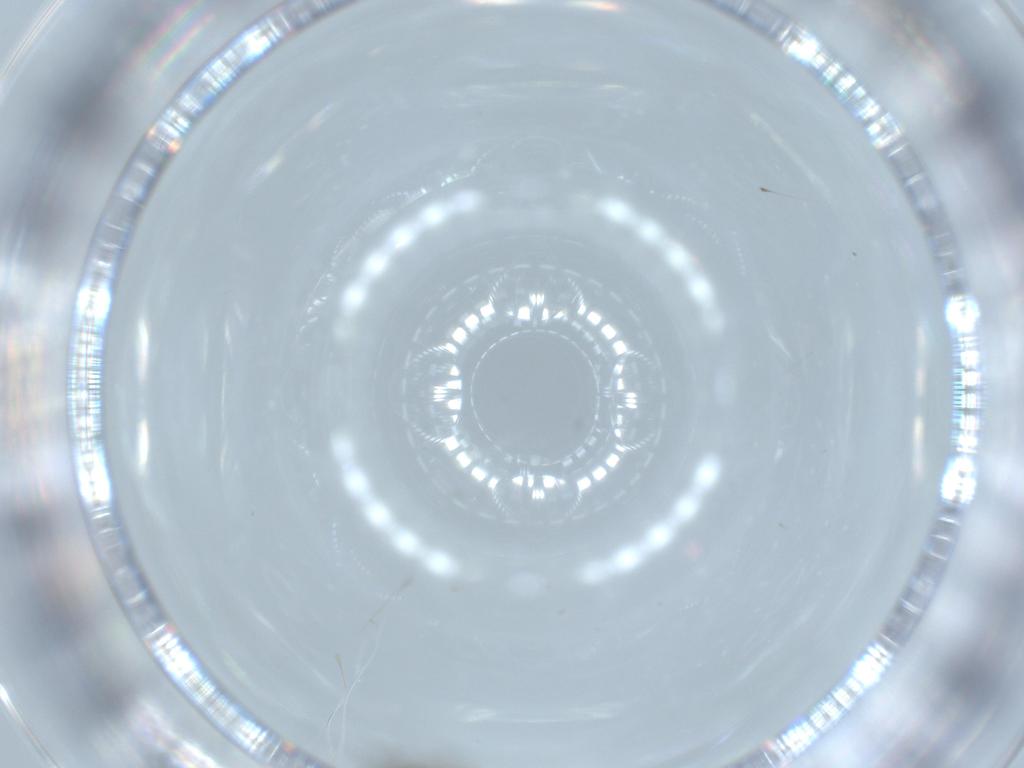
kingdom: Animalia
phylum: Arthropoda
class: Insecta
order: Diptera
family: Sciaridae
